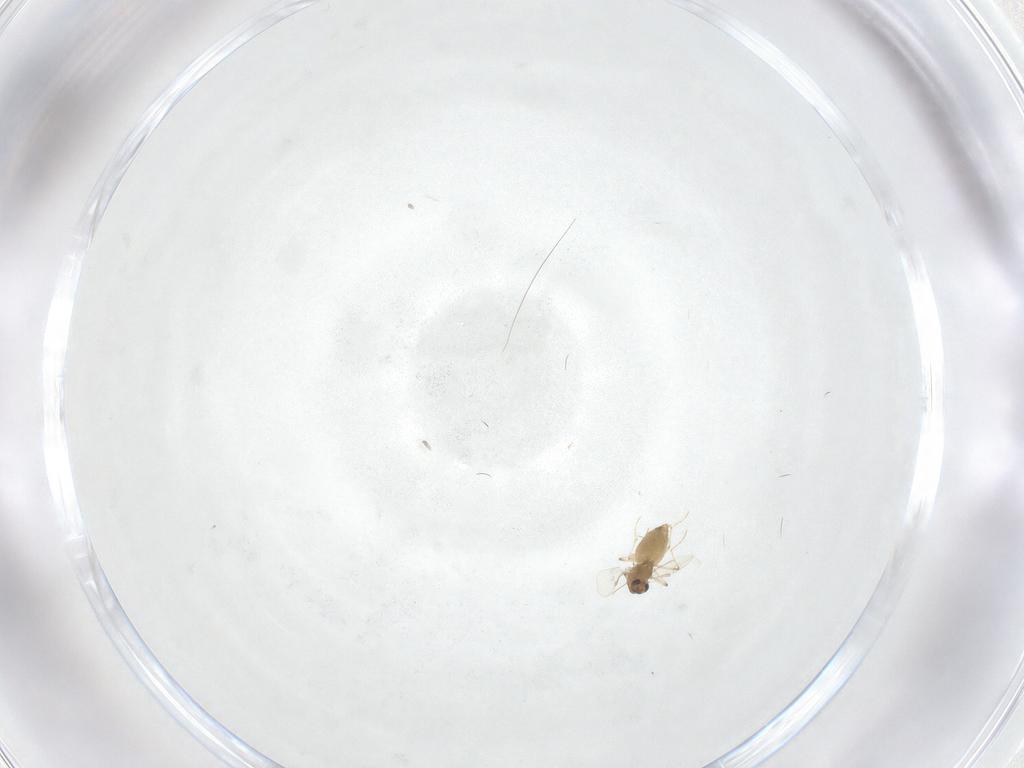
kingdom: Animalia
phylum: Arthropoda
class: Insecta
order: Diptera
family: Chironomidae
